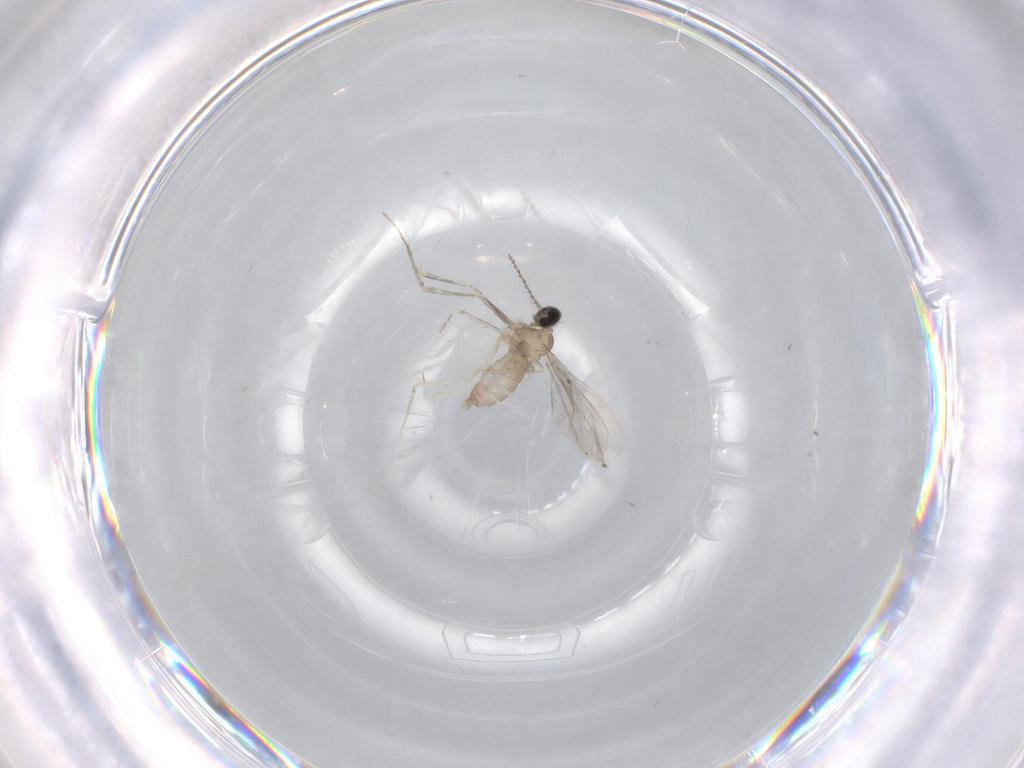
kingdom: Animalia
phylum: Arthropoda
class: Insecta
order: Diptera
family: Cecidomyiidae
